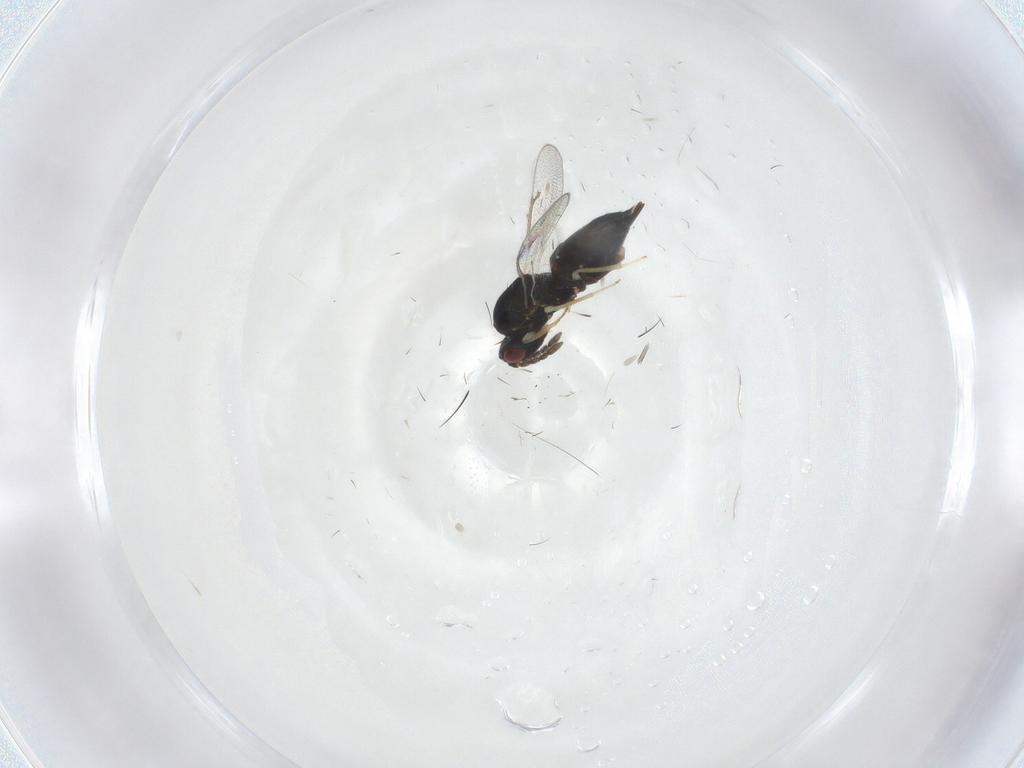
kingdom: Animalia
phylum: Arthropoda
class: Insecta
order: Hymenoptera
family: Eulophidae
